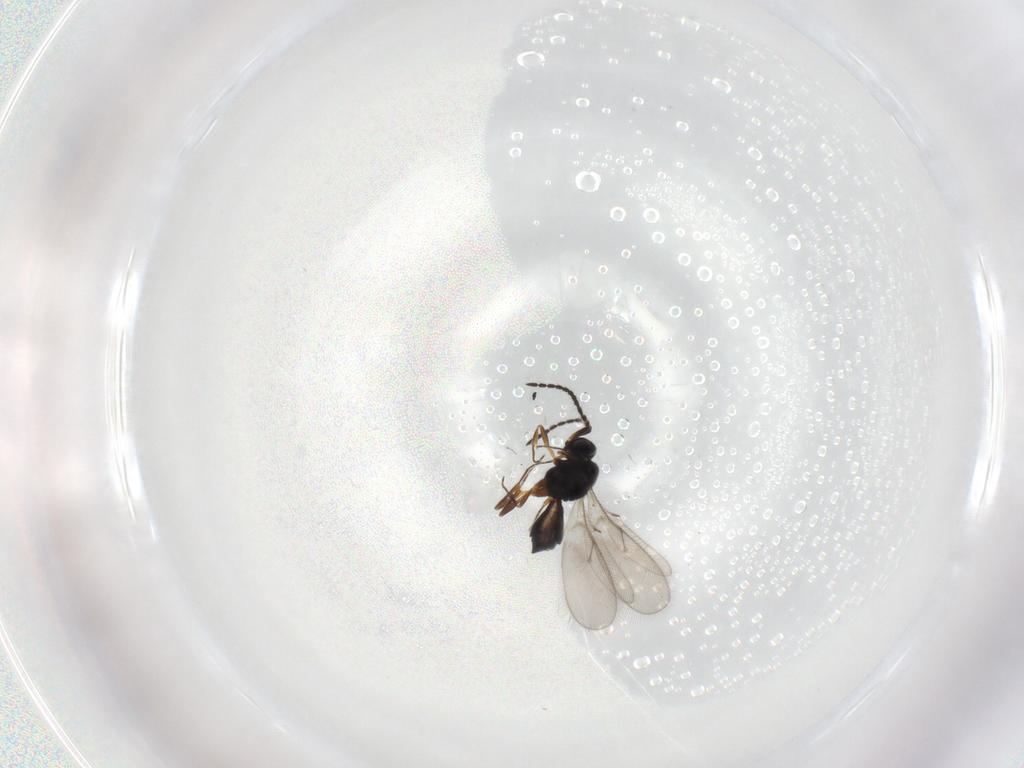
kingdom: Animalia
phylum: Arthropoda
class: Insecta
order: Hymenoptera
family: Scelionidae
